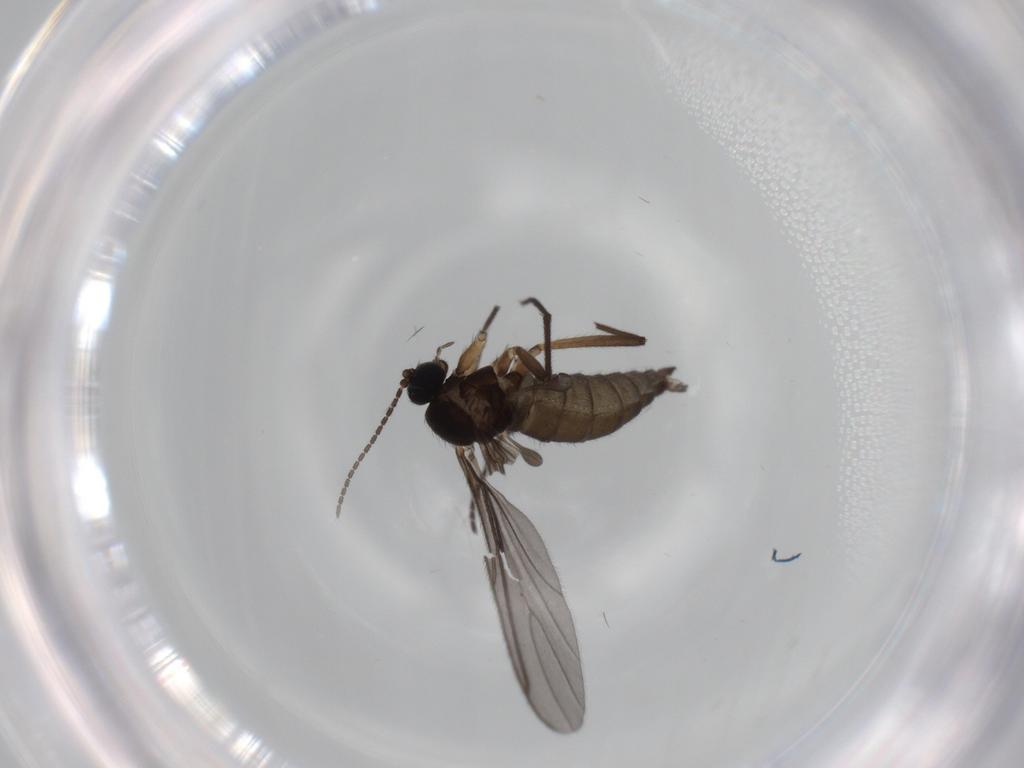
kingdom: Animalia
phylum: Arthropoda
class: Insecta
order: Diptera
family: Sciaridae
